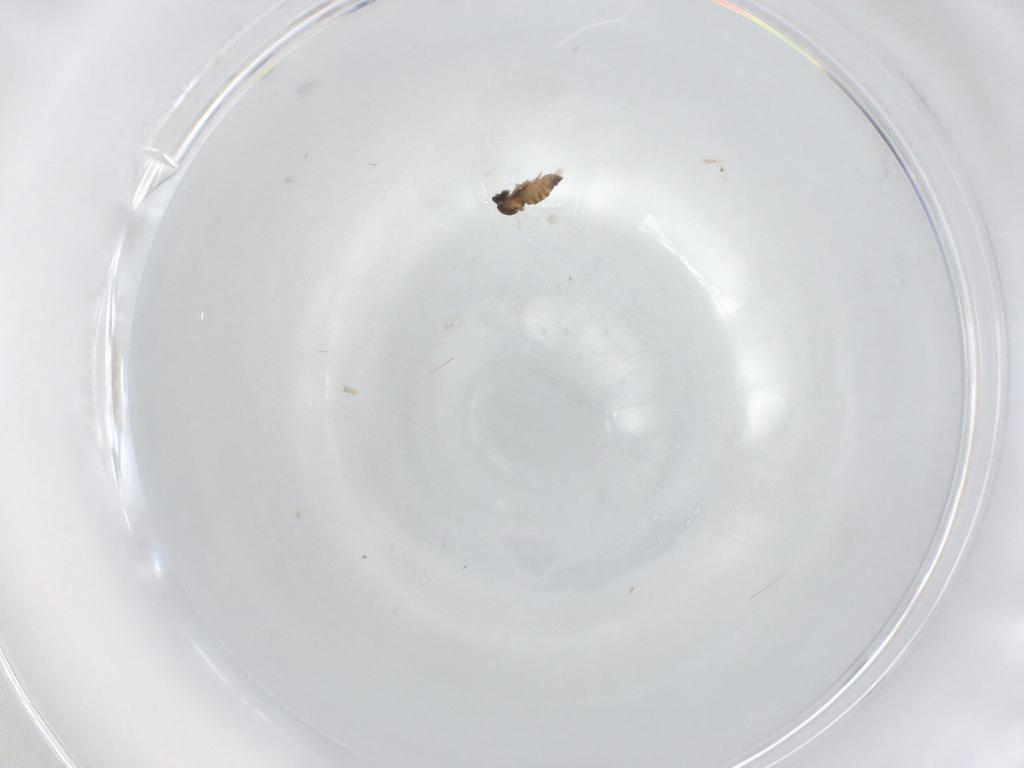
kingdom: Animalia
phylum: Arthropoda
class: Insecta
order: Diptera
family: Cecidomyiidae
